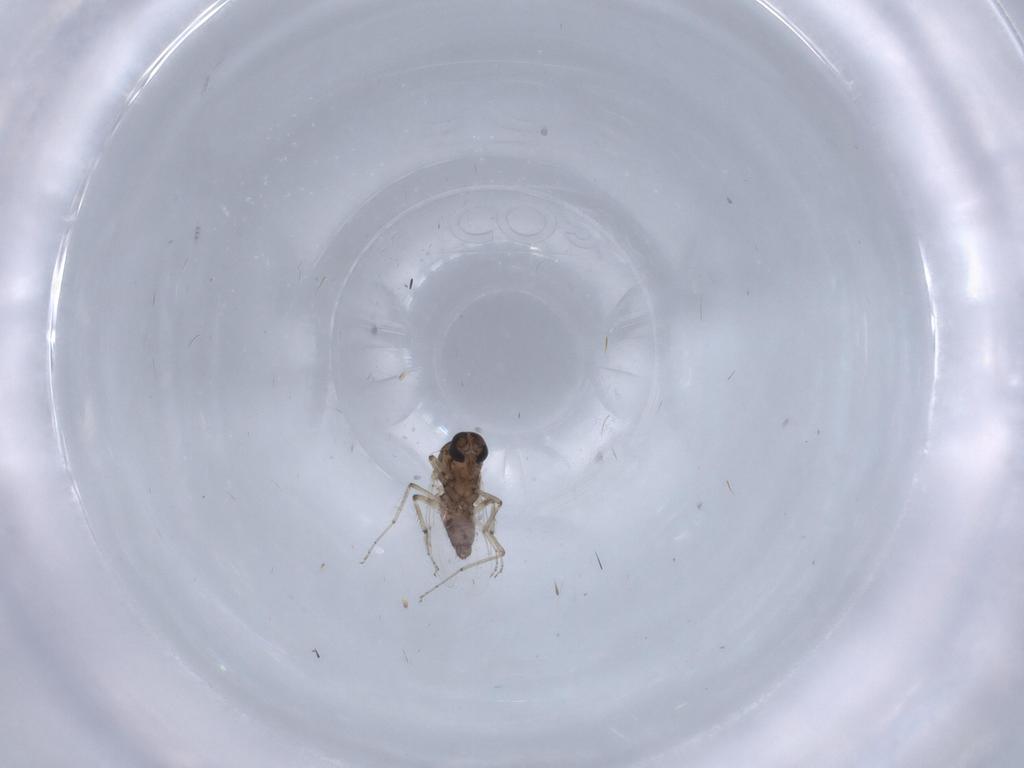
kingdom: Animalia
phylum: Arthropoda
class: Insecta
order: Diptera
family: Ceratopogonidae
